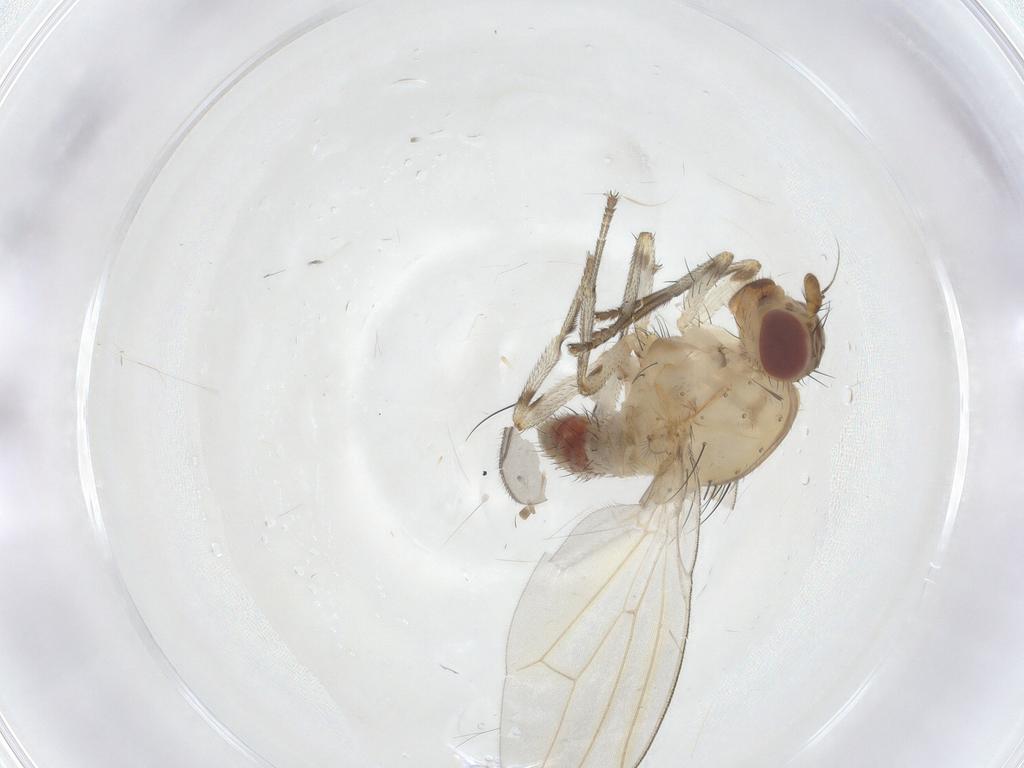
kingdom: Animalia
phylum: Arthropoda
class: Insecta
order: Diptera
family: Lauxaniidae
